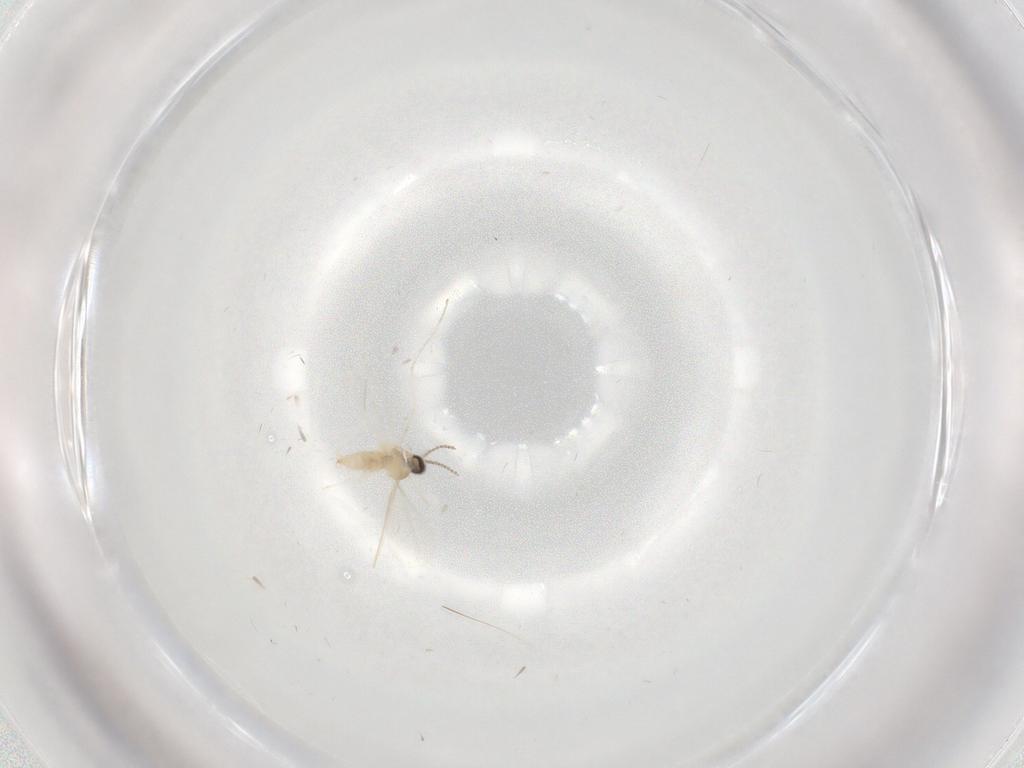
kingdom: Animalia
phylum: Arthropoda
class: Insecta
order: Diptera
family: Cecidomyiidae
